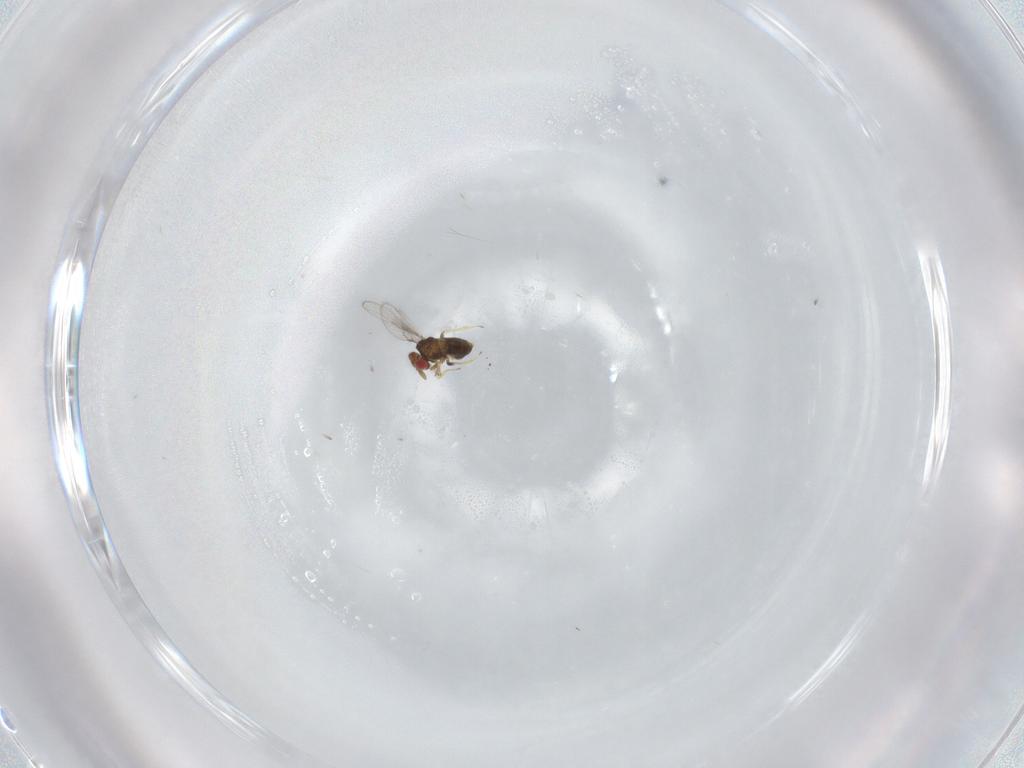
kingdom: Animalia
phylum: Arthropoda
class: Insecta
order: Hymenoptera
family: Trichogrammatidae
